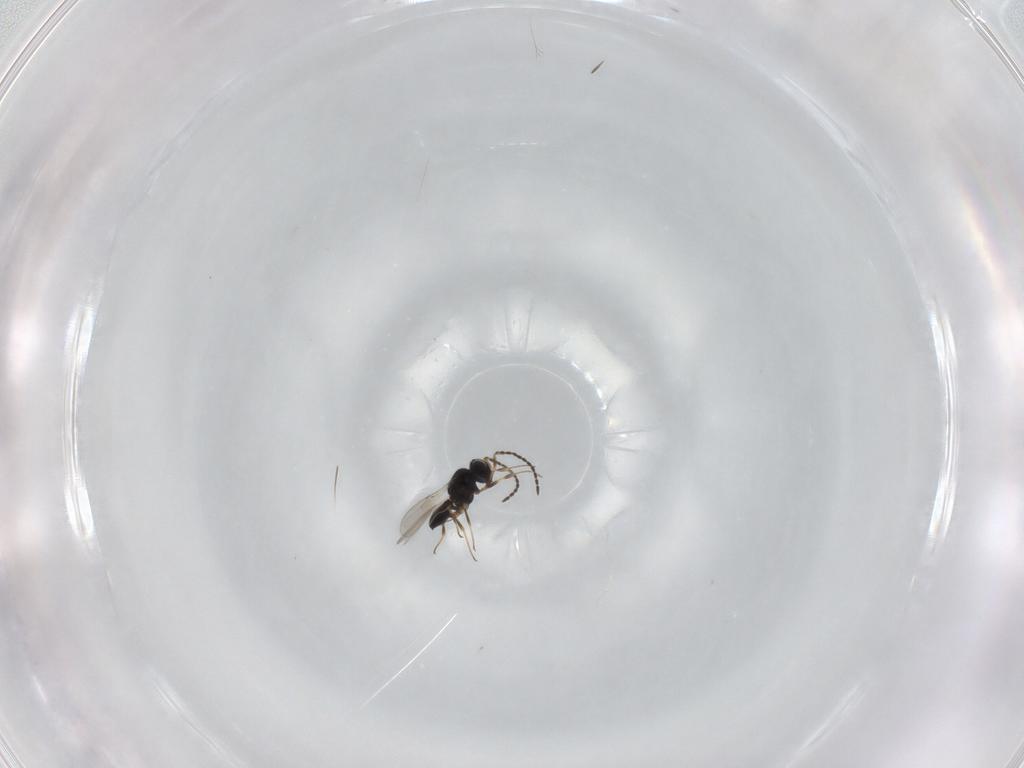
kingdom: Animalia
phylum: Arthropoda
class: Insecta
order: Hymenoptera
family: Scelionidae
